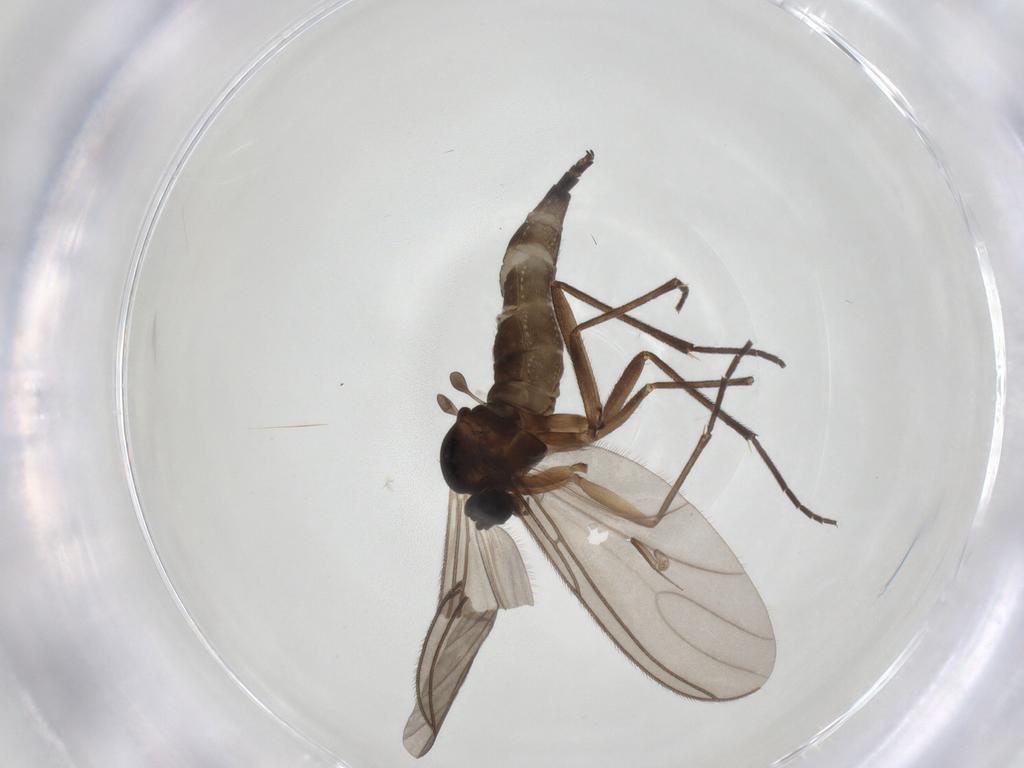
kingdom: Animalia
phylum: Arthropoda
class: Insecta
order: Diptera
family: Sciaridae
